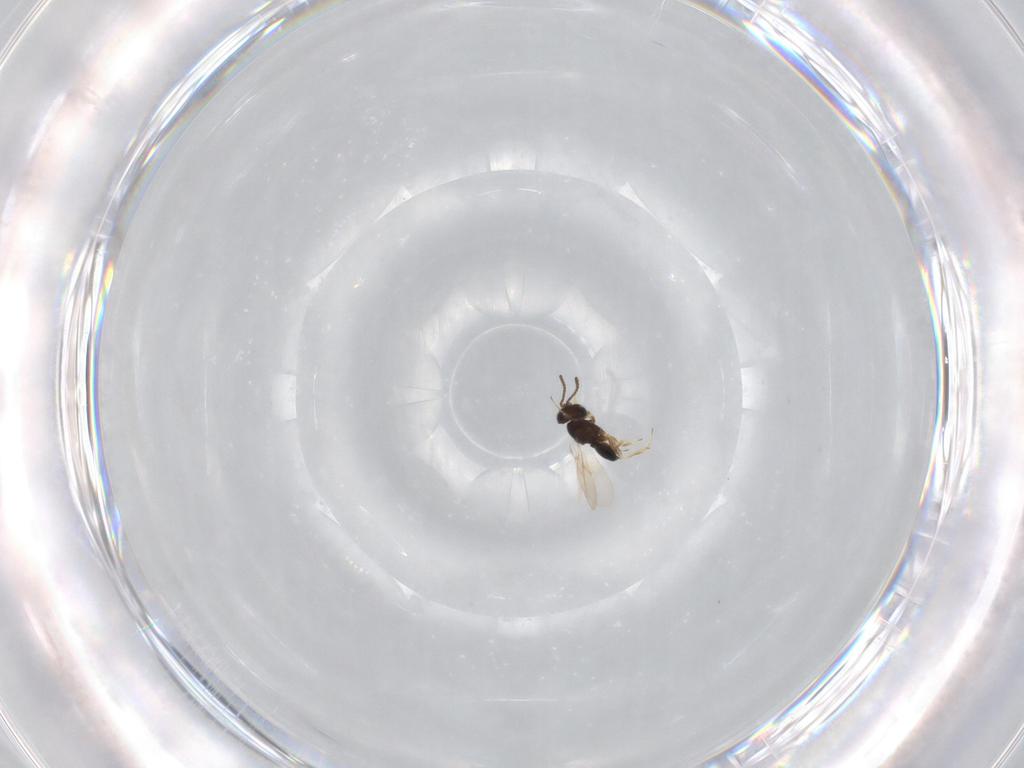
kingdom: Animalia
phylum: Arthropoda
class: Insecta
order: Hymenoptera
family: Scelionidae
